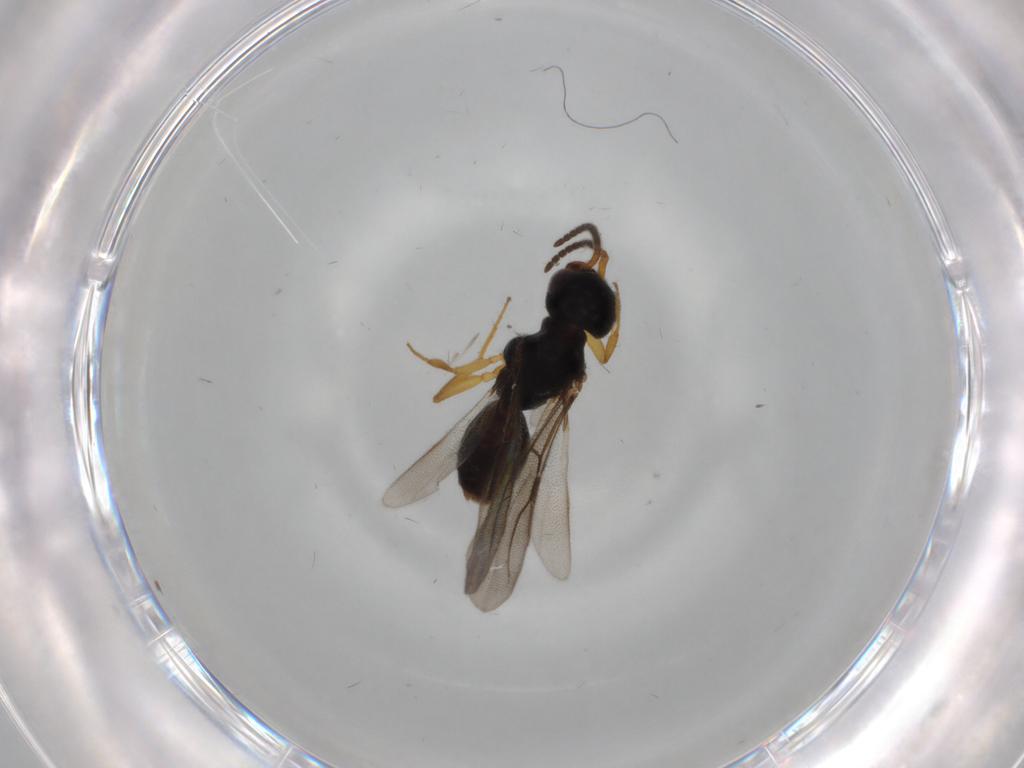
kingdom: Animalia
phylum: Arthropoda
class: Insecta
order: Hymenoptera
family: Bethylidae
